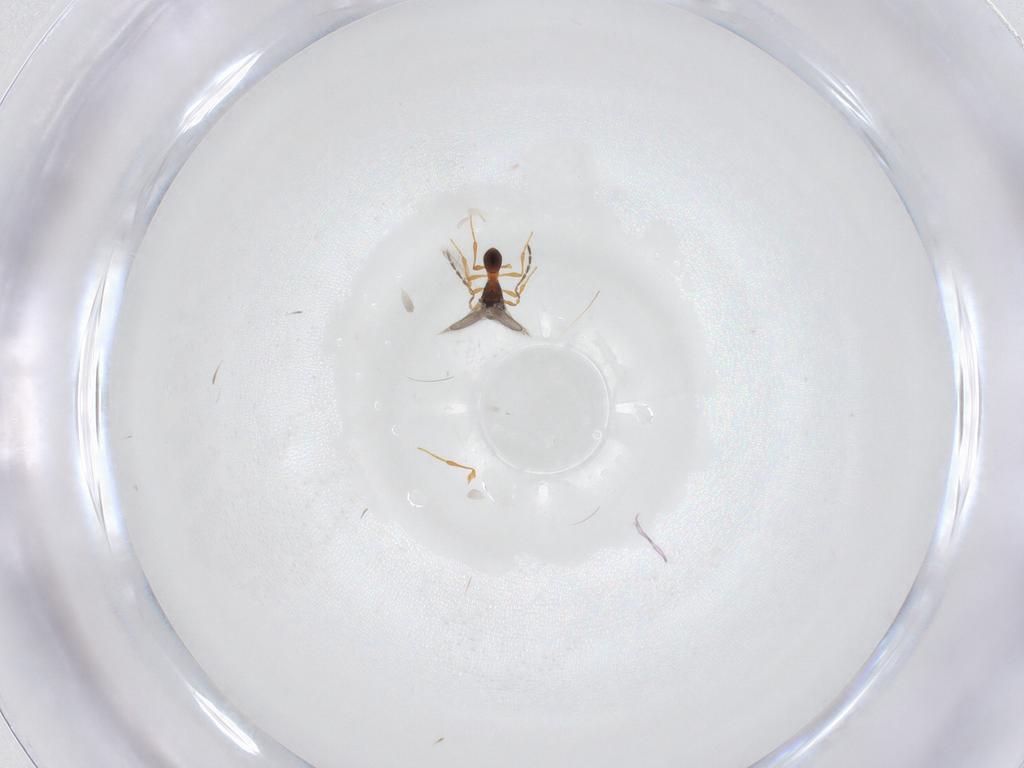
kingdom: Animalia
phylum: Arthropoda
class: Insecta
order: Hymenoptera
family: Platygastridae
